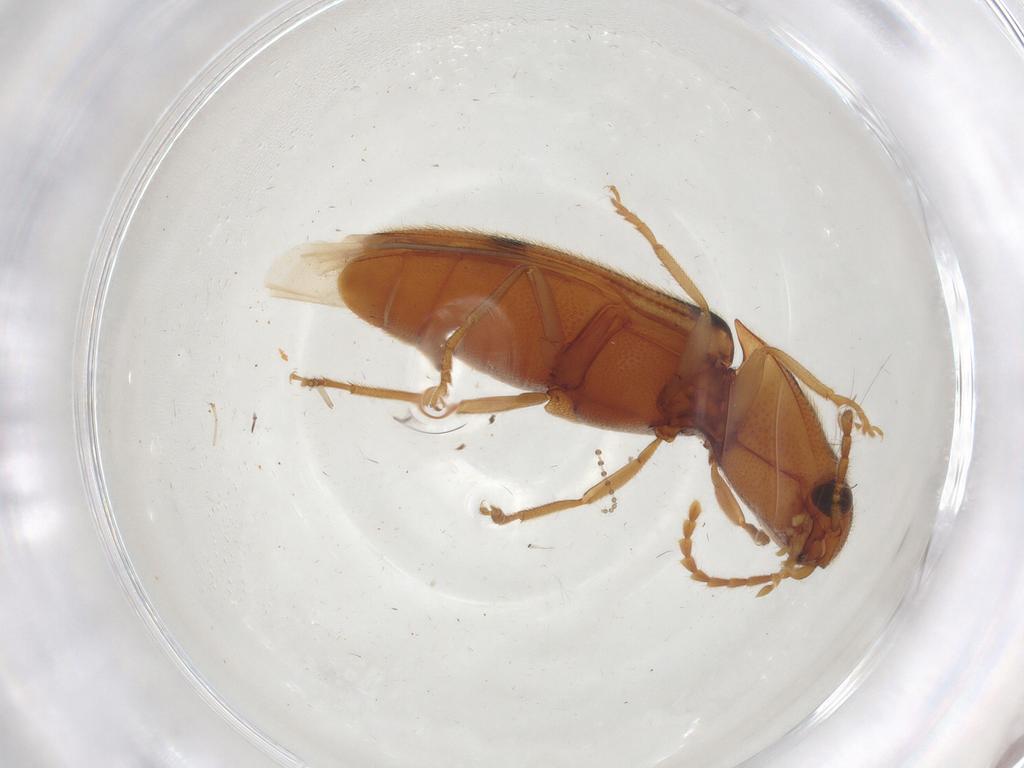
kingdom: Animalia
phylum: Arthropoda
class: Insecta
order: Coleoptera
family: Elateridae
